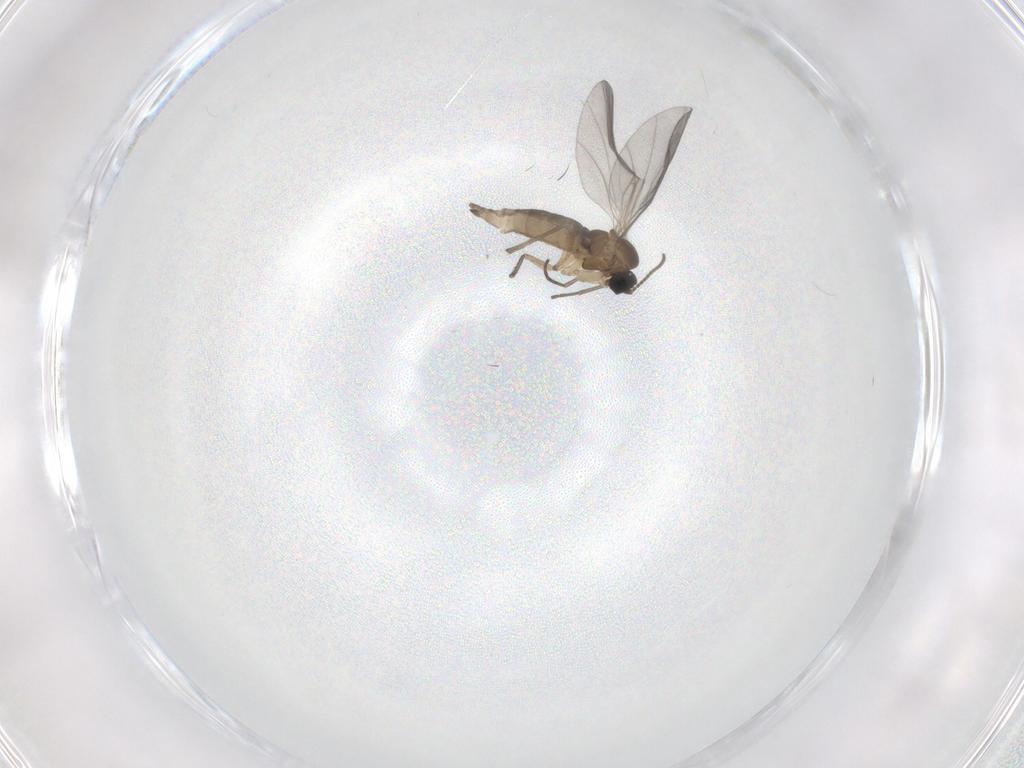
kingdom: Animalia
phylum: Arthropoda
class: Insecta
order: Diptera
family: Sciaridae
